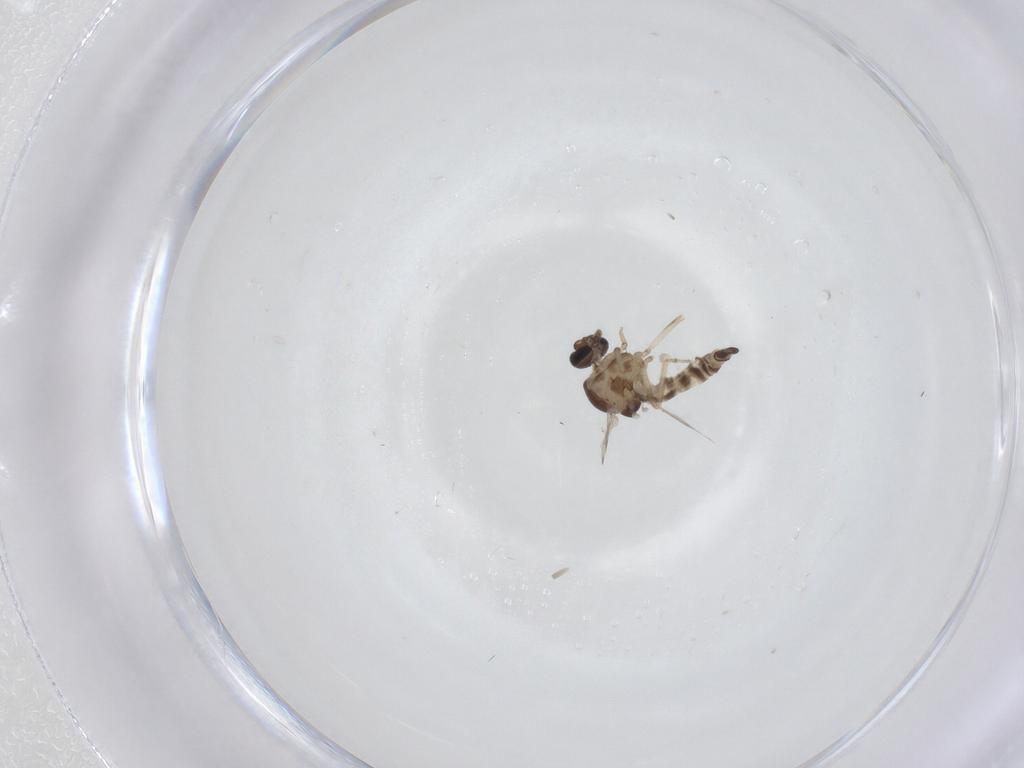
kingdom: Animalia
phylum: Arthropoda
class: Insecta
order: Diptera
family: Ceratopogonidae
